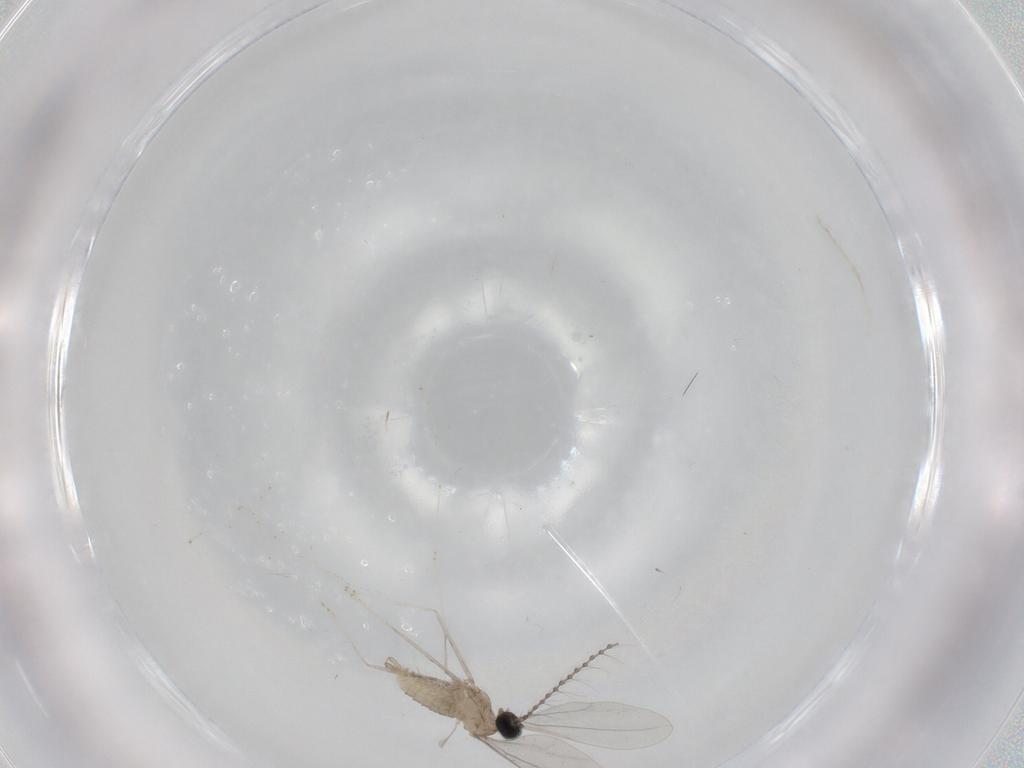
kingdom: Animalia
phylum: Arthropoda
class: Insecta
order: Diptera
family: Cecidomyiidae
